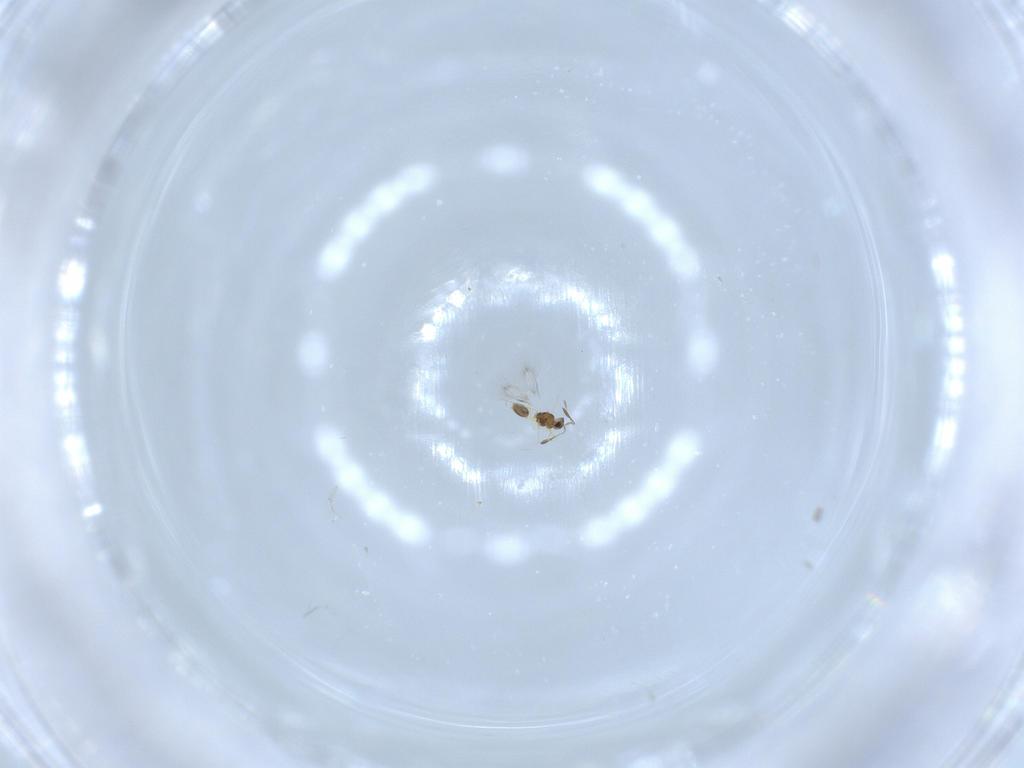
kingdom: Animalia
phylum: Arthropoda
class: Insecta
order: Hymenoptera
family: Mymarommatidae
